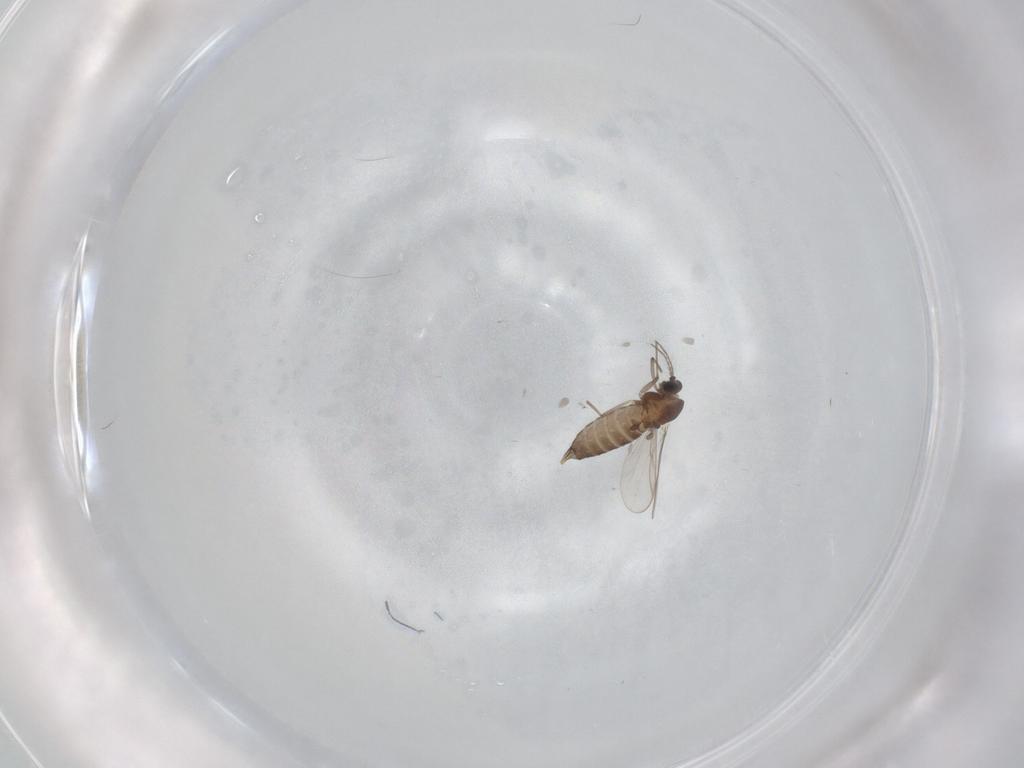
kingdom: Animalia
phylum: Arthropoda
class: Insecta
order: Diptera
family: Chironomidae
